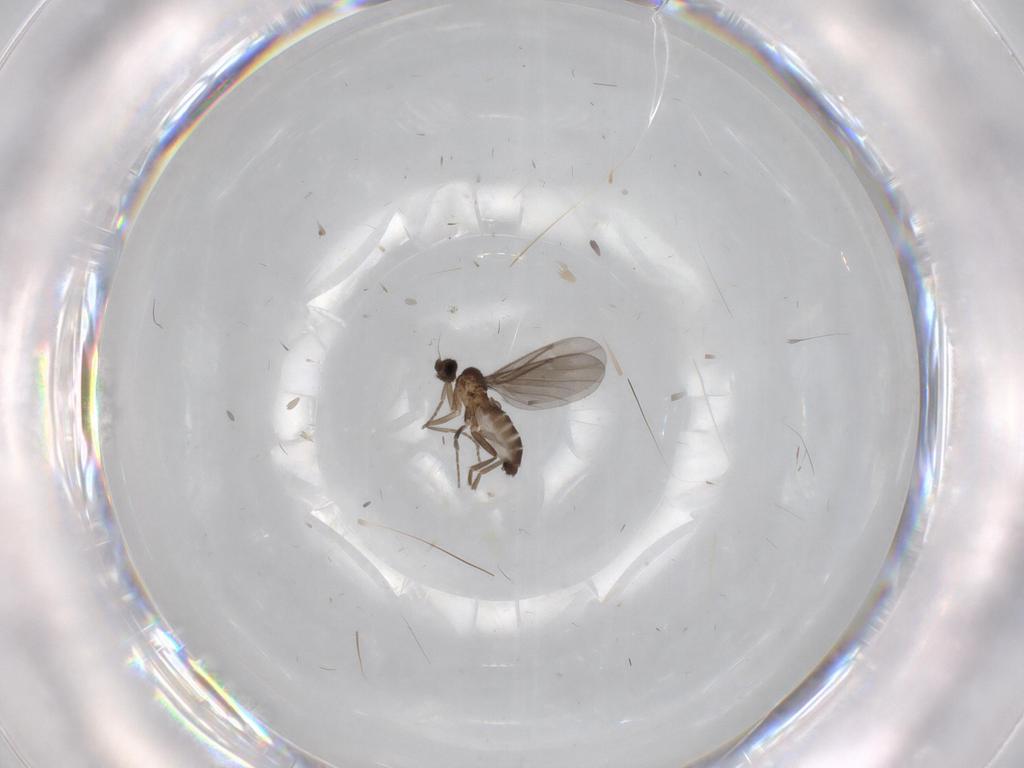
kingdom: Animalia
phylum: Arthropoda
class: Insecta
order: Diptera
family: Phoridae
